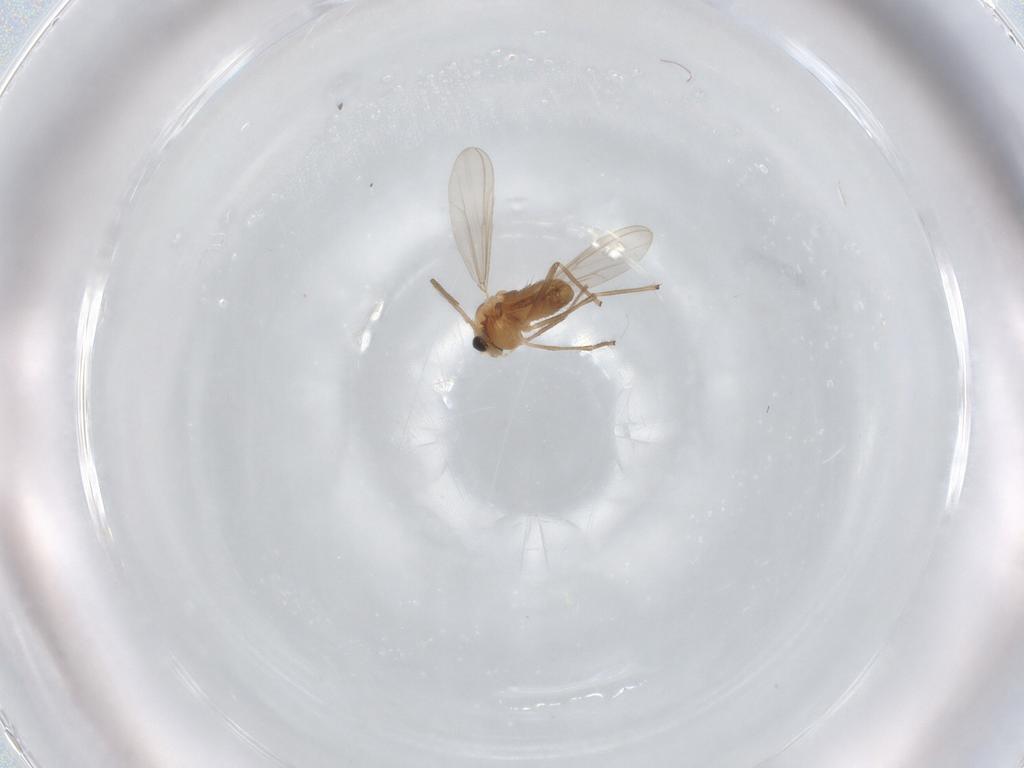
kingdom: Animalia
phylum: Arthropoda
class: Insecta
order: Diptera
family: Chironomidae
